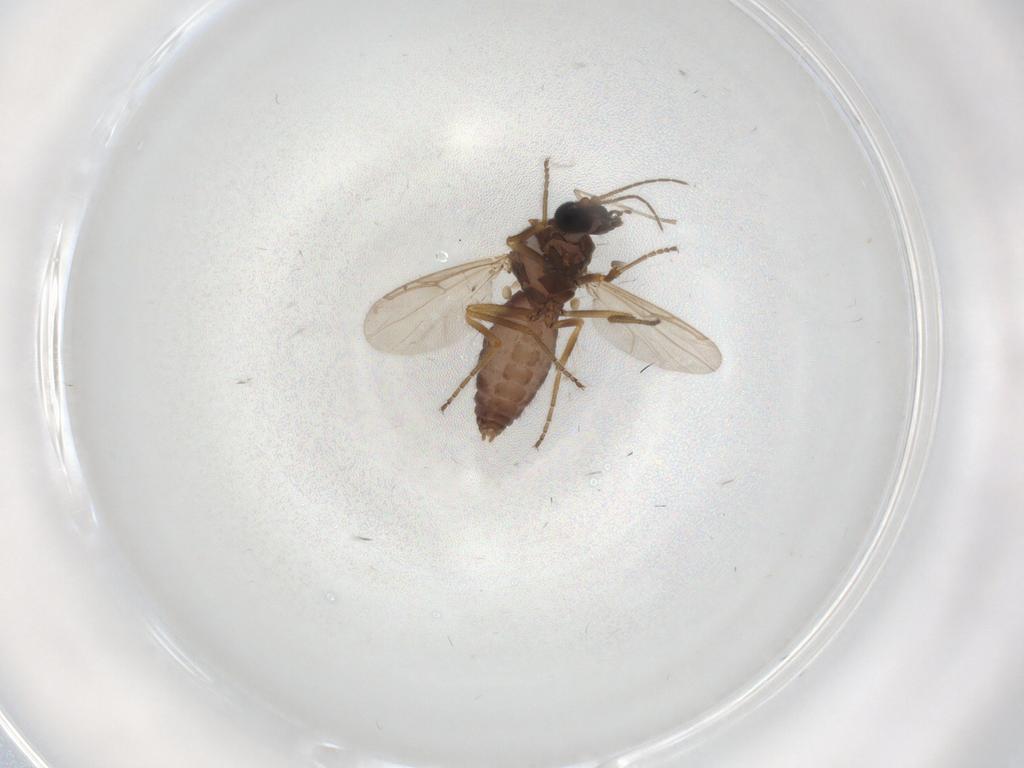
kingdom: Animalia
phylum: Arthropoda
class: Insecta
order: Diptera
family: Ceratopogonidae
